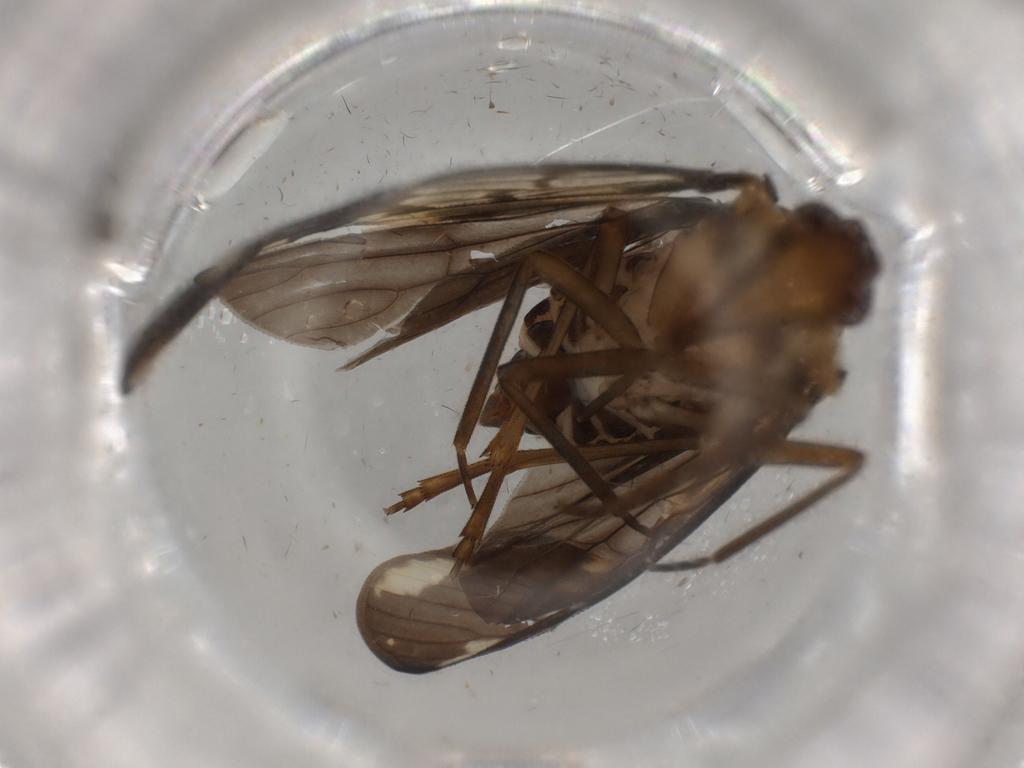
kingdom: Animalia
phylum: Arthropoda
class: Insecta
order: Hemiptera
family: Cixiidae
